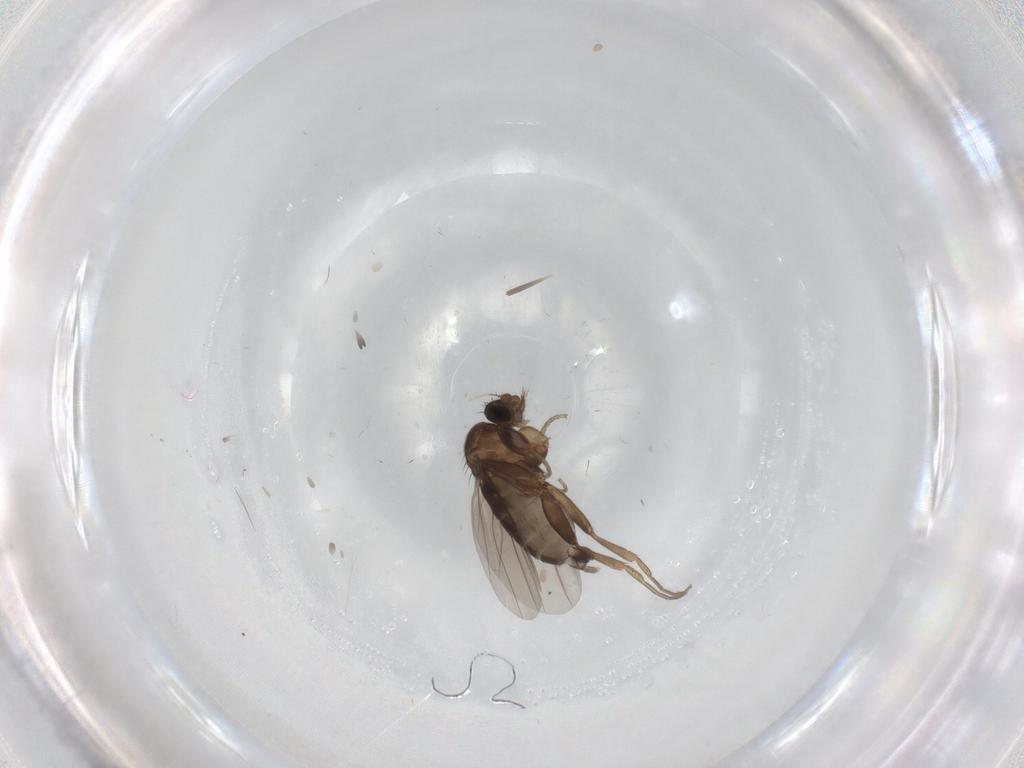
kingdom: Animalia
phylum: Arthropoda
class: Insecta
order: Diptera
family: Phoridae
